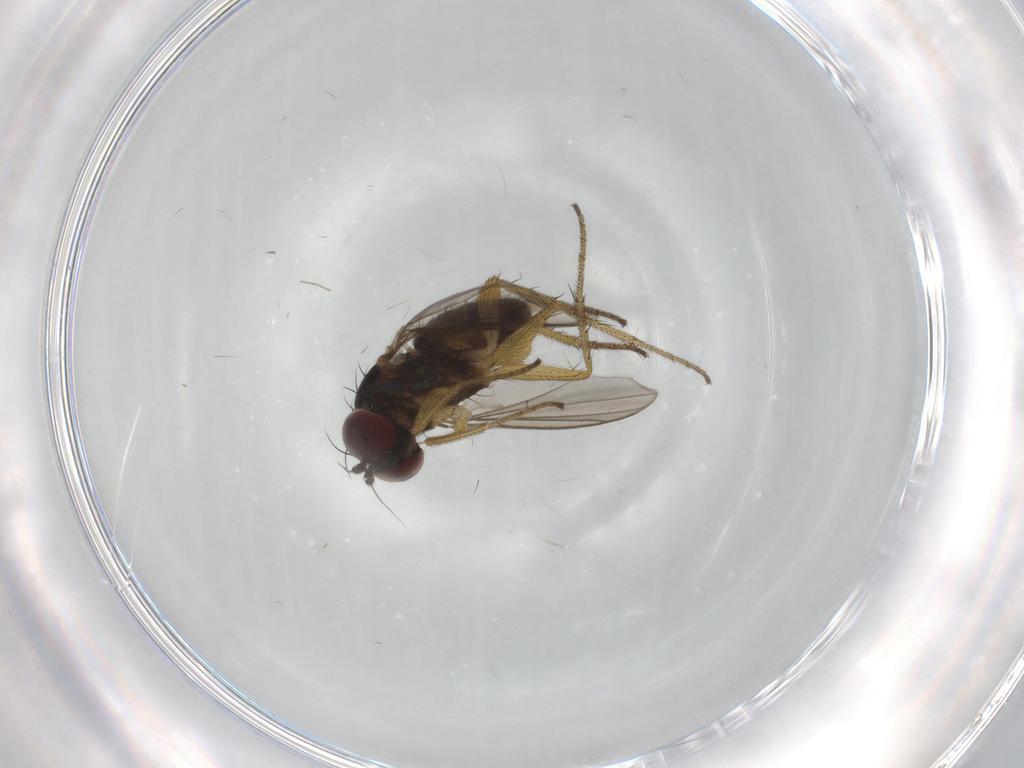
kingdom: Animalia
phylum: Arthropoda
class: Insecta
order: Diptera
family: Dolichopodidae
